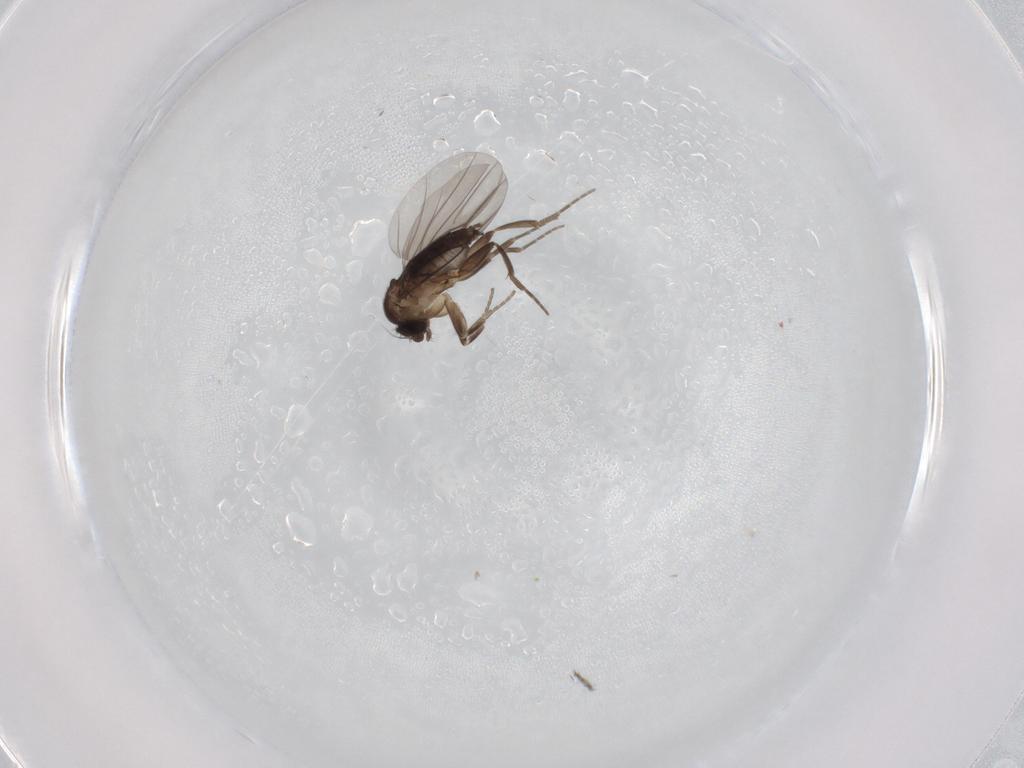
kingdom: Animalia
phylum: Arthropoda
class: Insecta
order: Diptera
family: Phoridae
